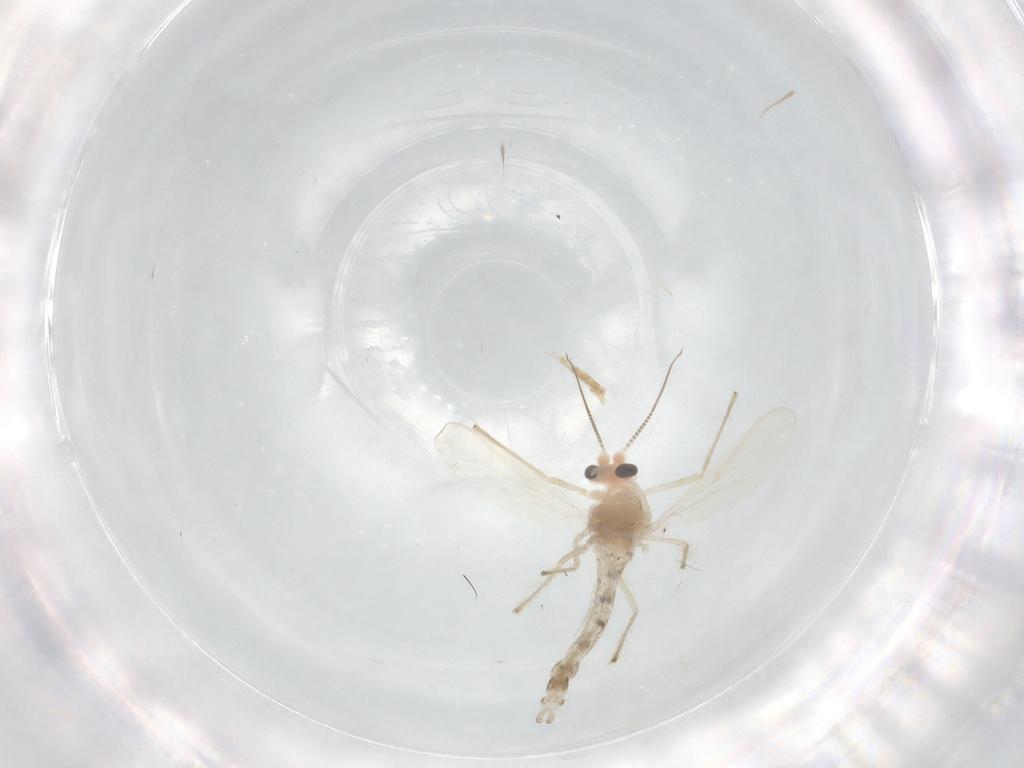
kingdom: Animalia
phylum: Arthropoda
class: Insecta
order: Diptera
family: Chironomidae
